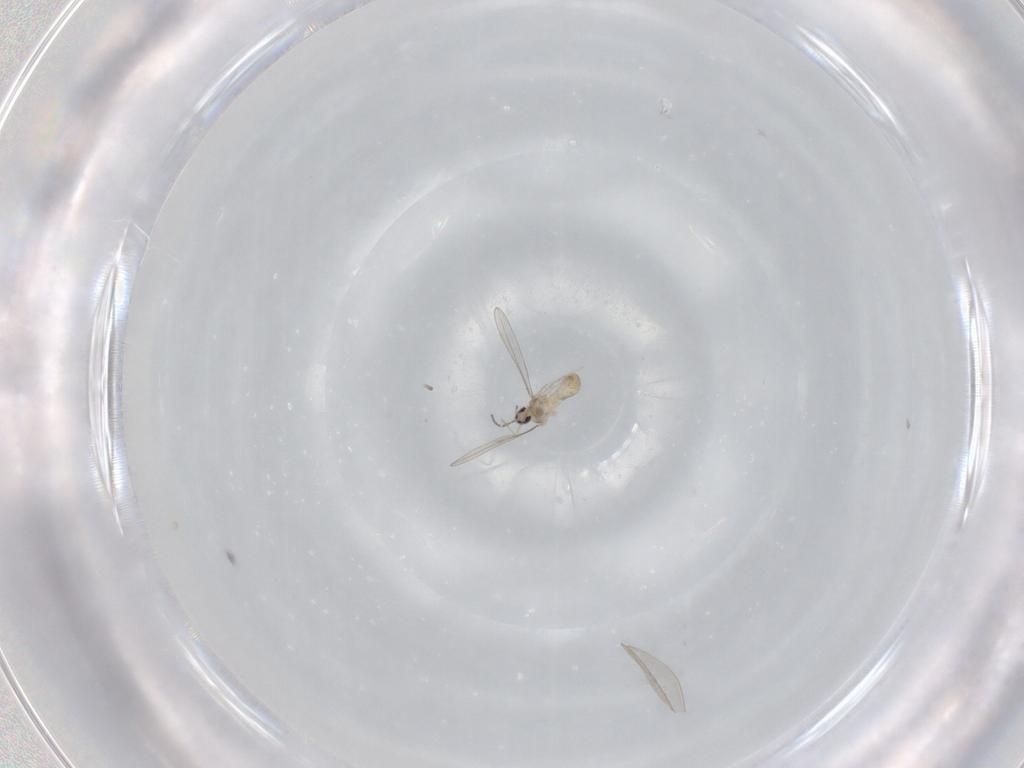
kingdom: Animalia
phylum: Arthropoda
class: Insecta
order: Diptera
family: Cecidomyiidae
